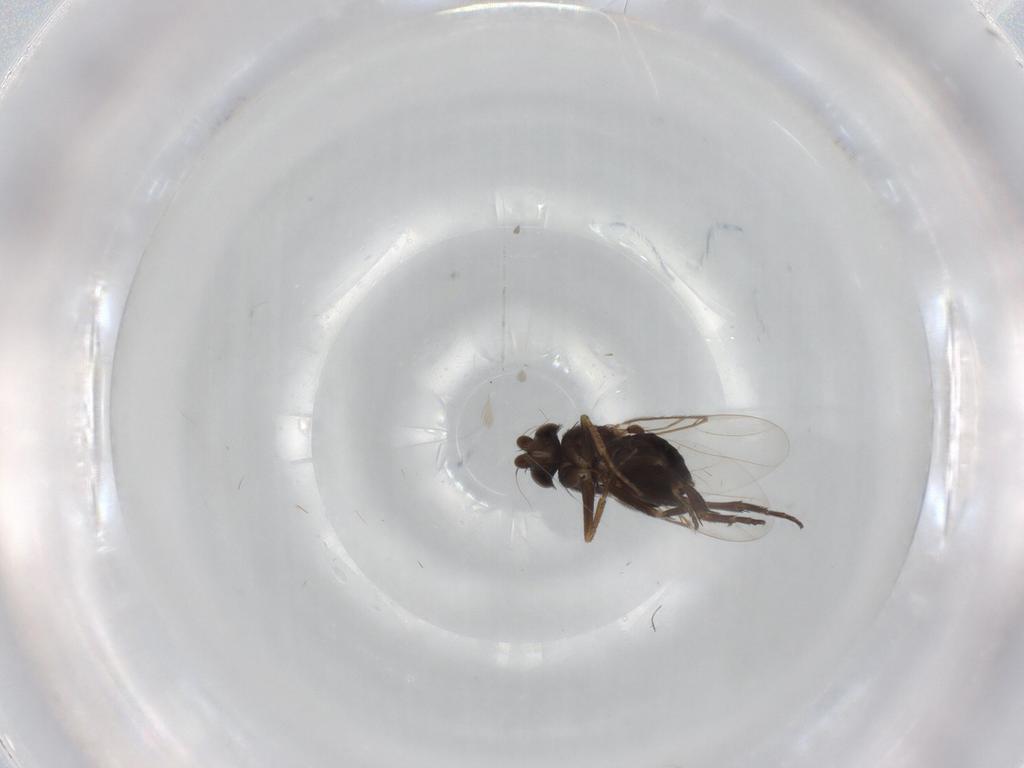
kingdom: Animalia
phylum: Arthropoda
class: Insecta
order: Diptera
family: Phoridae
